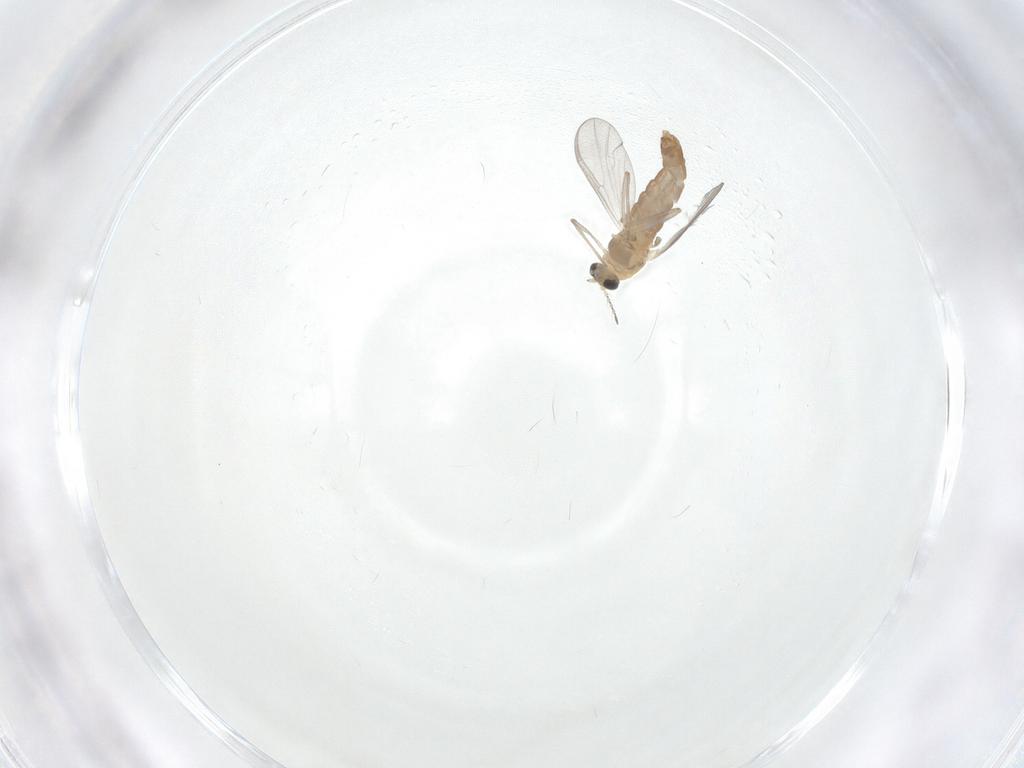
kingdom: Animalia
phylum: Arthropoda
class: Insecta
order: Diptera
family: Chironomidae
